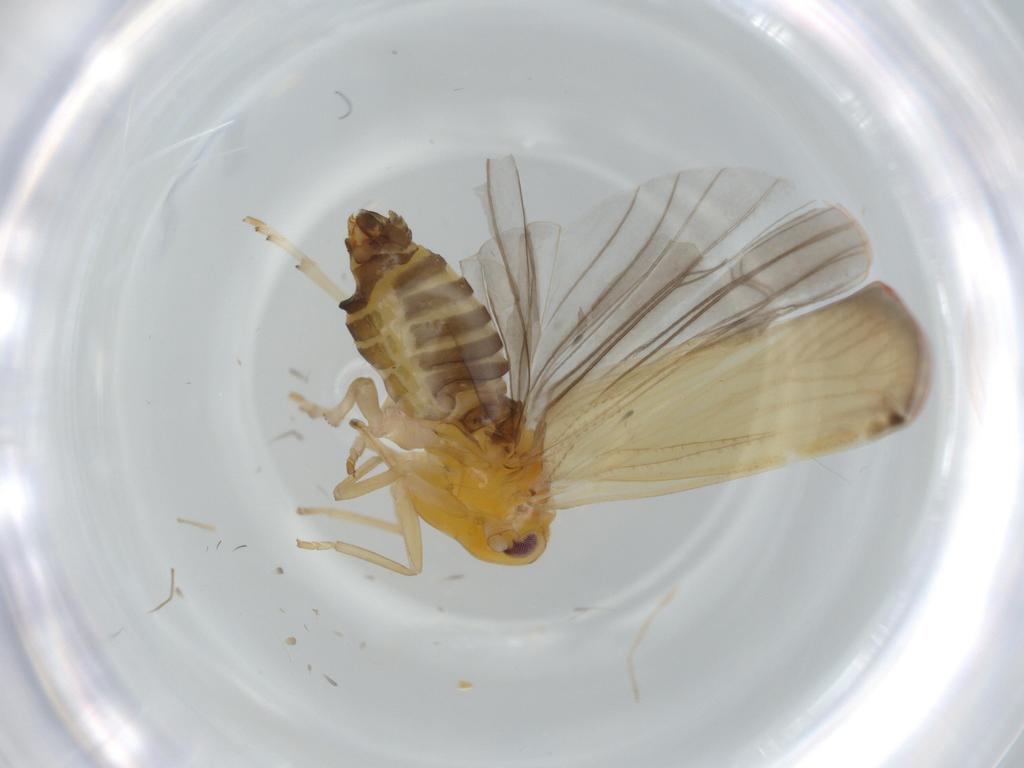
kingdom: Animalia
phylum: Arthropoda
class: Insecta
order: Hemiptera
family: Derbidae
